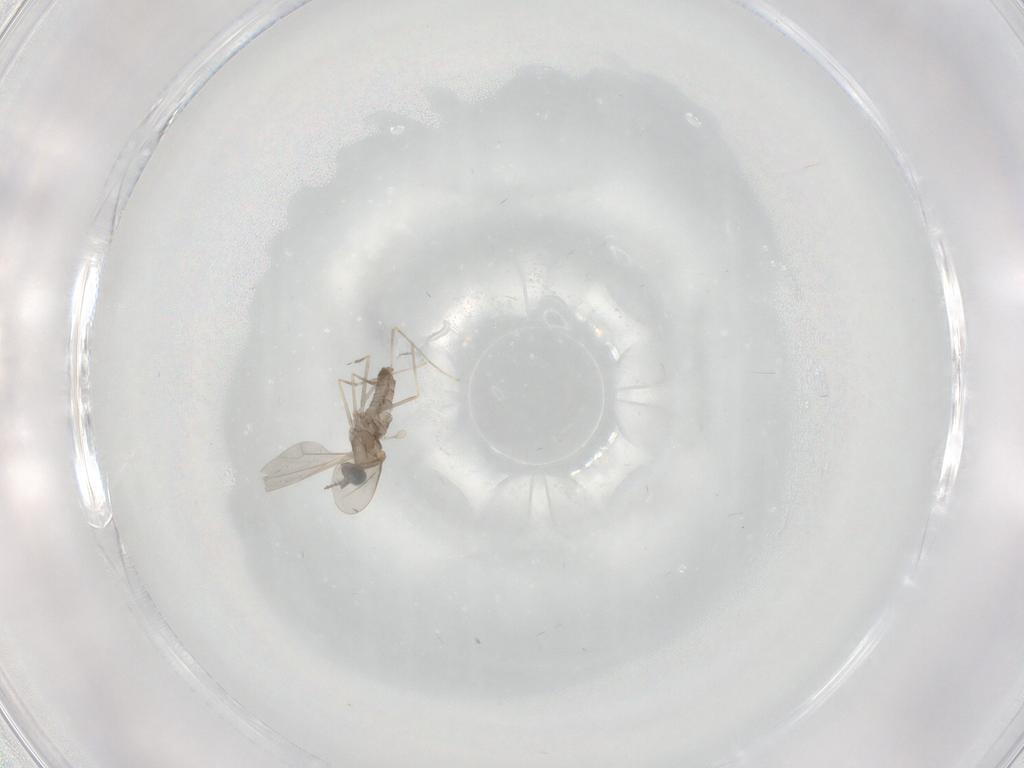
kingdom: Animalia
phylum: Arthropoda
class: Insecta
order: Diptera
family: Cecidomyiidae
